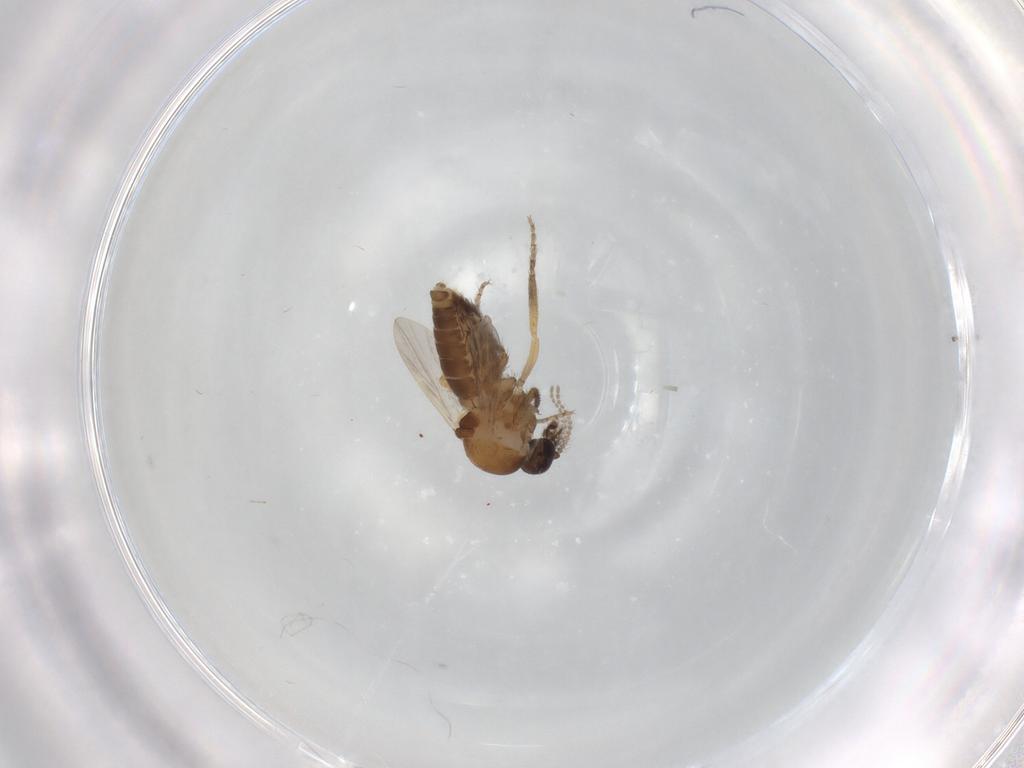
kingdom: Animalia
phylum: Arthropoda
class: Insecta
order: Diptera
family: Ceratopogonidae
